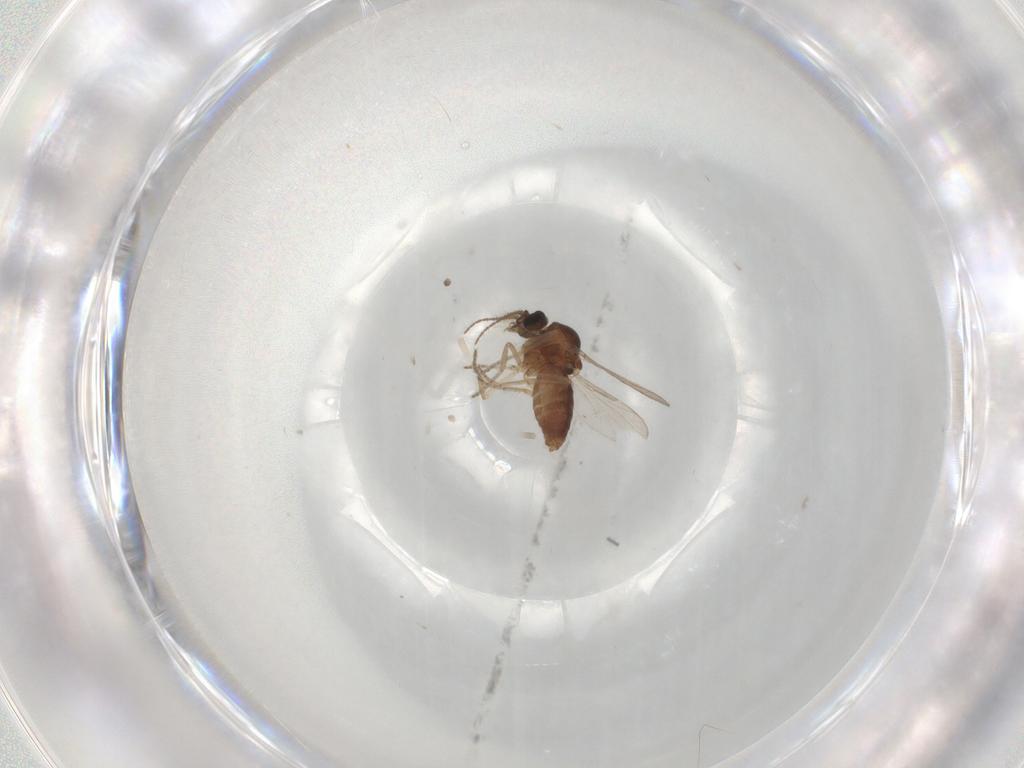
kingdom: Animalia
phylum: Arthropoda
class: Insecta
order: Diptera
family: Ceratopogonidae
